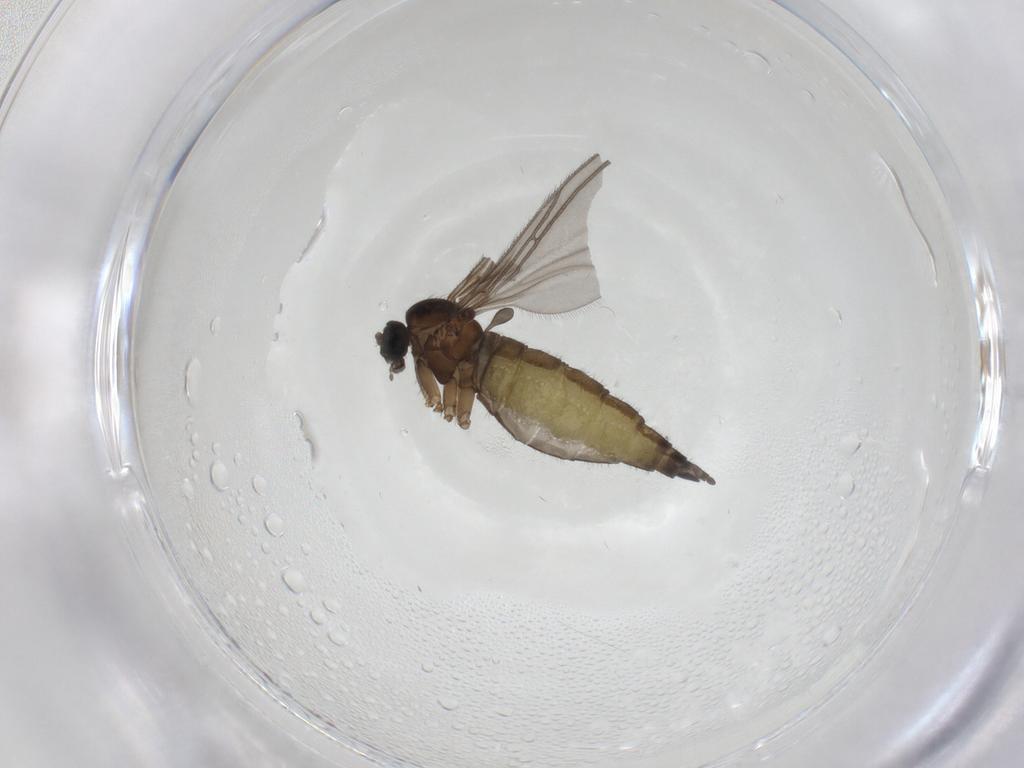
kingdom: Animalia
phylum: Arthropoda
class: Insecta
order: Diptera
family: Sciaridae
